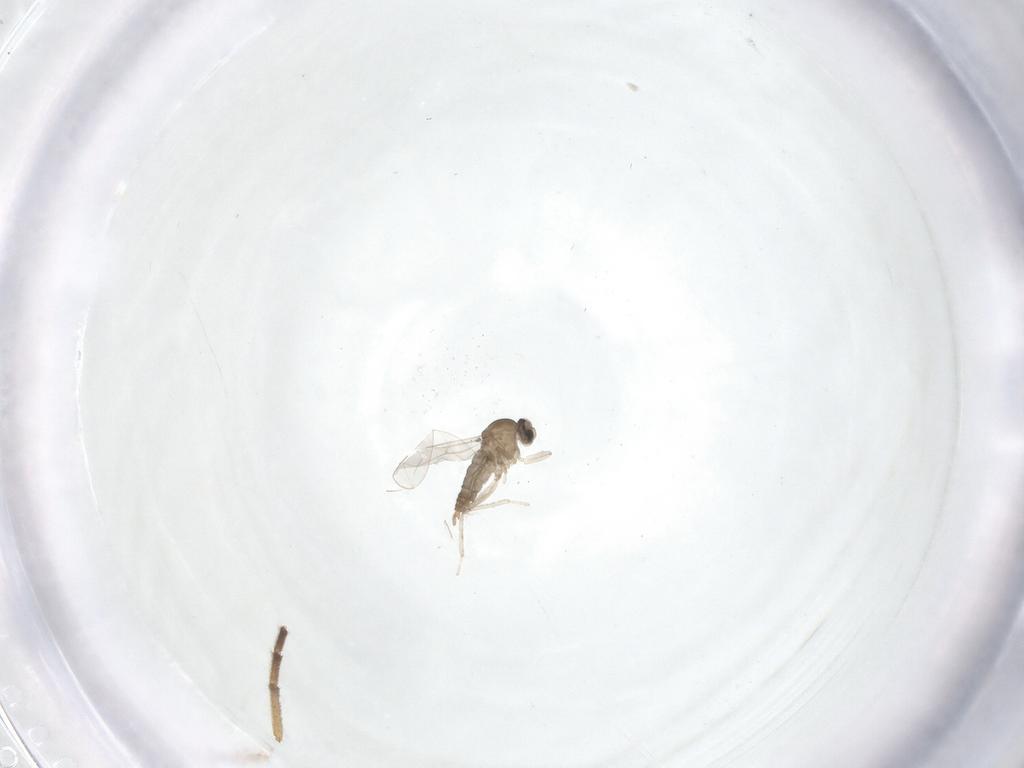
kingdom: Animalia
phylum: Arthropoda
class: Insecta
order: Diptera
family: Cecidomyiidae
